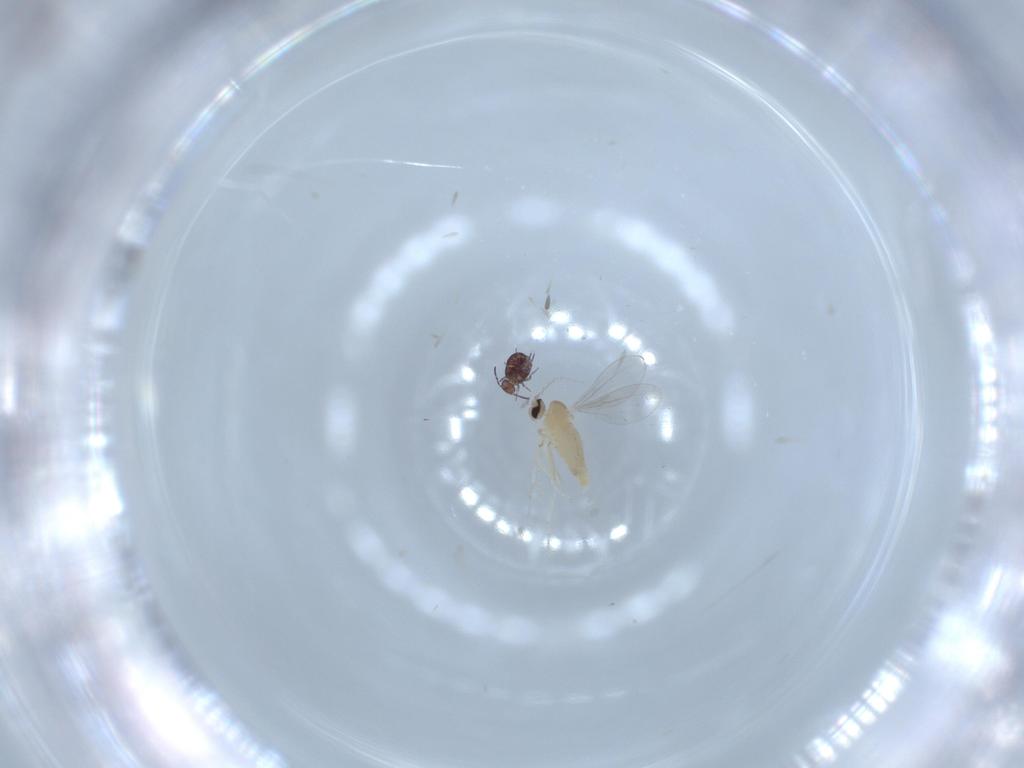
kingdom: Animalia
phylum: Arthropoda
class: Collembola
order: Symphypleona
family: Sminthurididae
